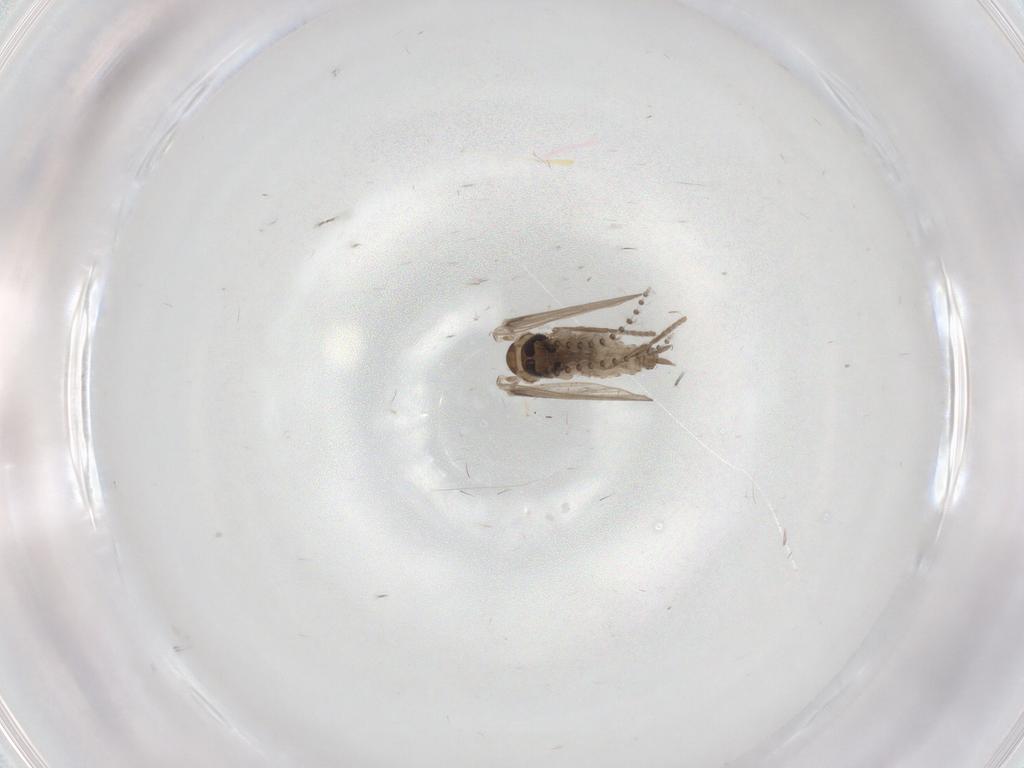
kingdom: Animalia
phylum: Arthropoda
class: Insecta
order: Diptera
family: Psychodidae
